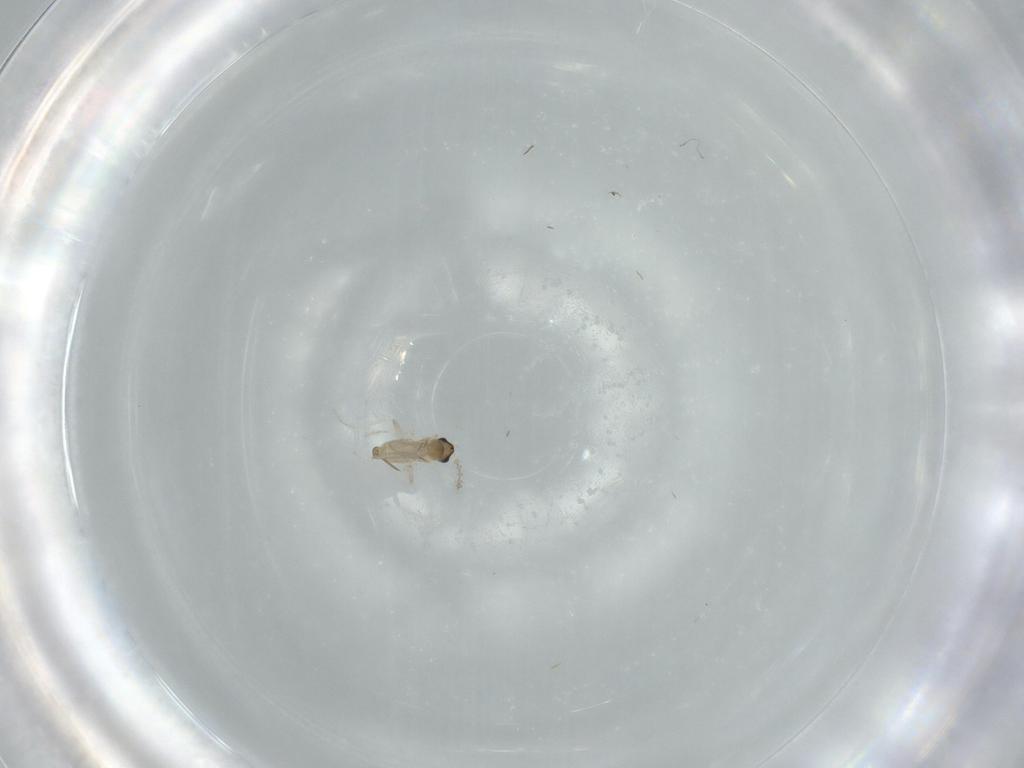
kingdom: Animalia
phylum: Arthropoda
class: Insecta
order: Diptera
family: Cecidomyiidae
